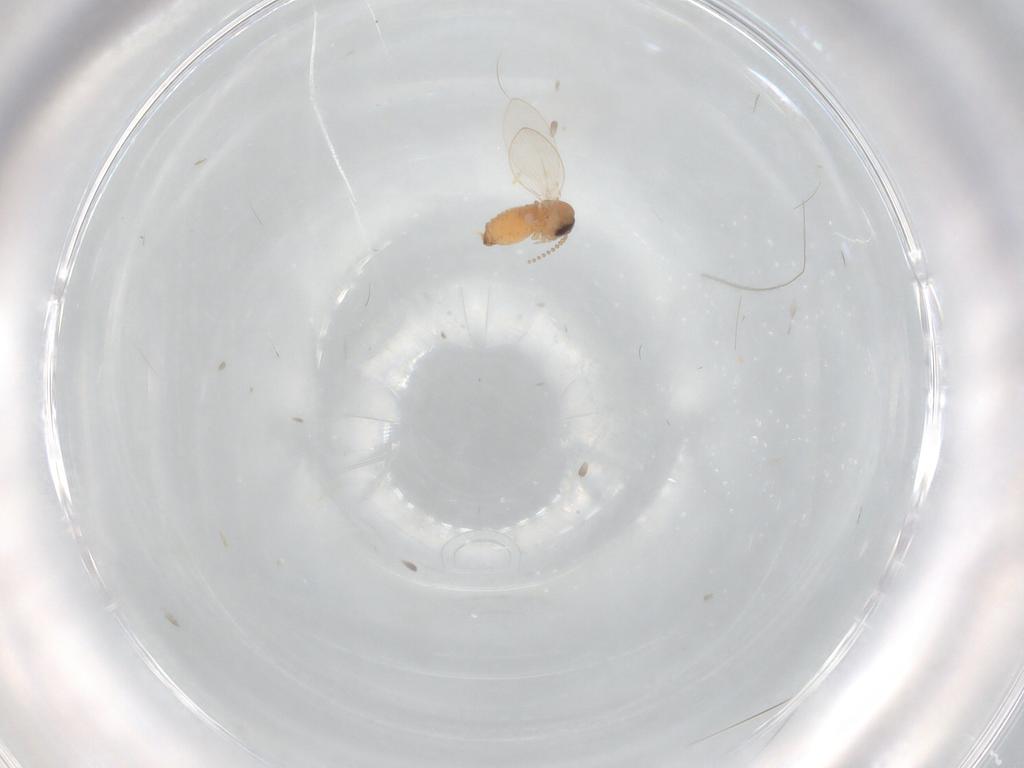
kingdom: Animalia
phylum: Arthropoda
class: Insecta
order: Diptera
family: Psychodidae
